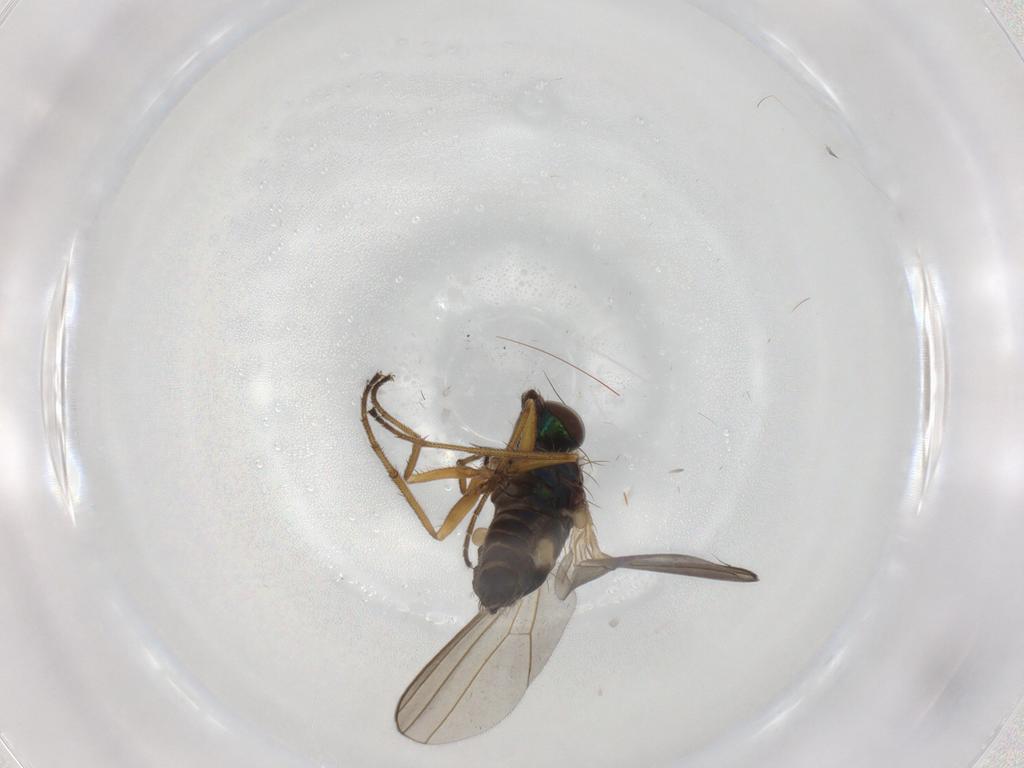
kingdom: Animalia
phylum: Arthropoda
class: Insecta
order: Diptera
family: Dolichopodidae
